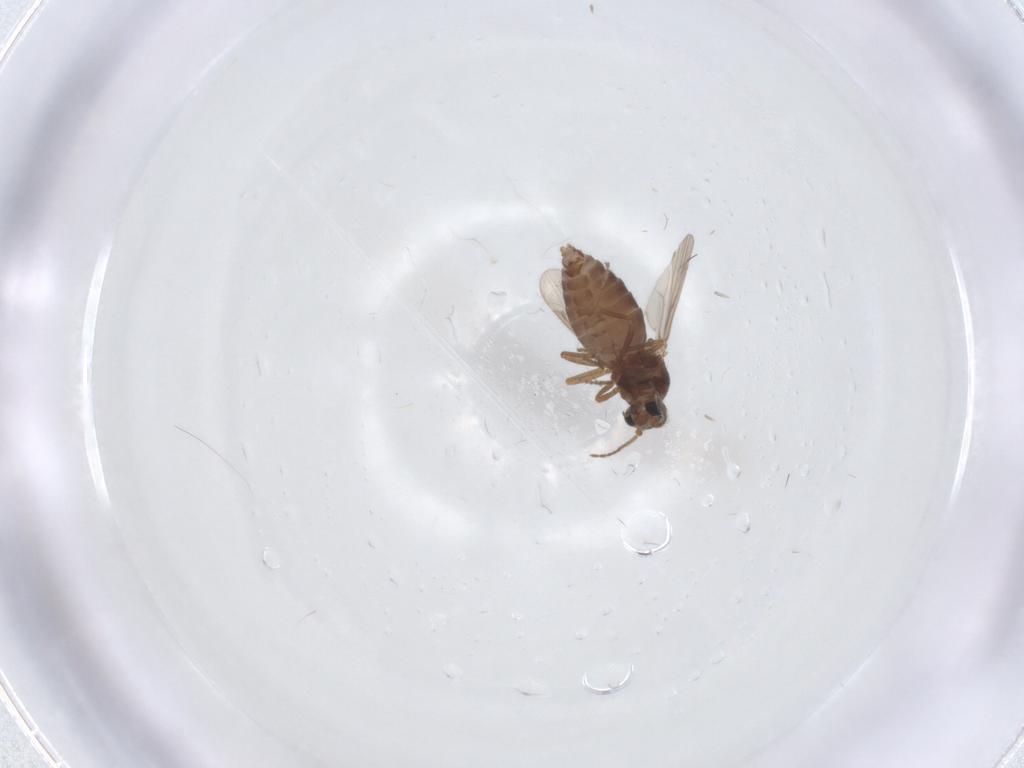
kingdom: Animalia
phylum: Arthropoda
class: Insecta
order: Diptera
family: Ceratopogonidae
